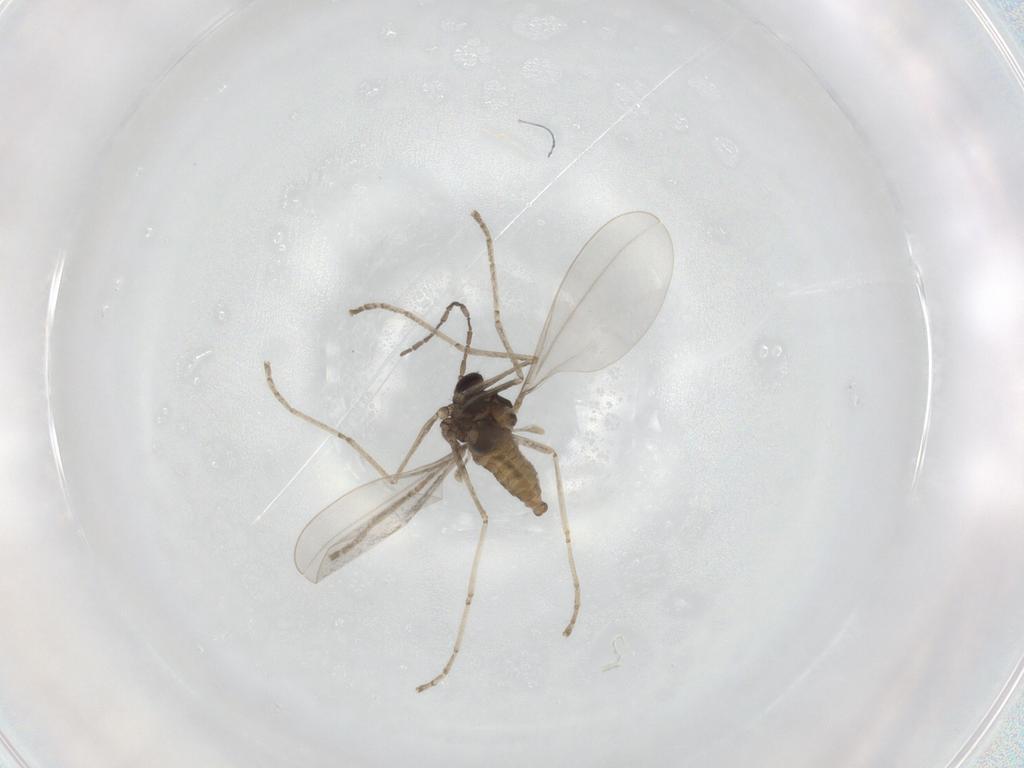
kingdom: Animalia
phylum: Arthropoda
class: Insecta
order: Diptera
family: Cecidomyiidae
